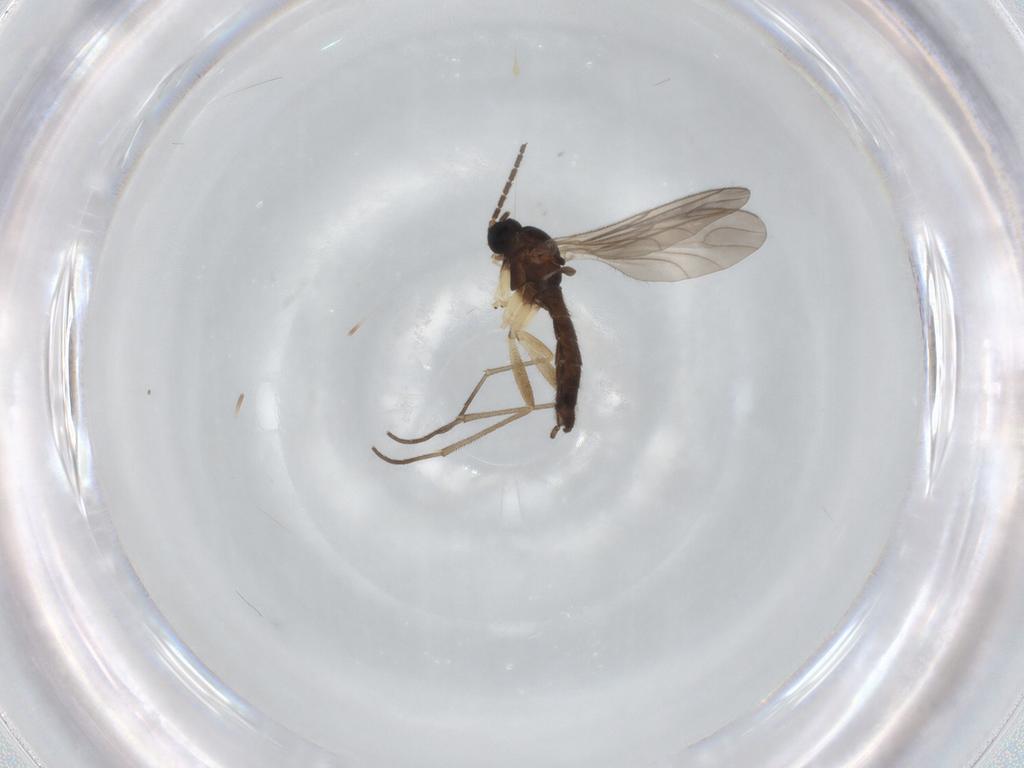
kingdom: Animalia
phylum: Arthropoda
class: Insecta
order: Diptera
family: Sciaridae
